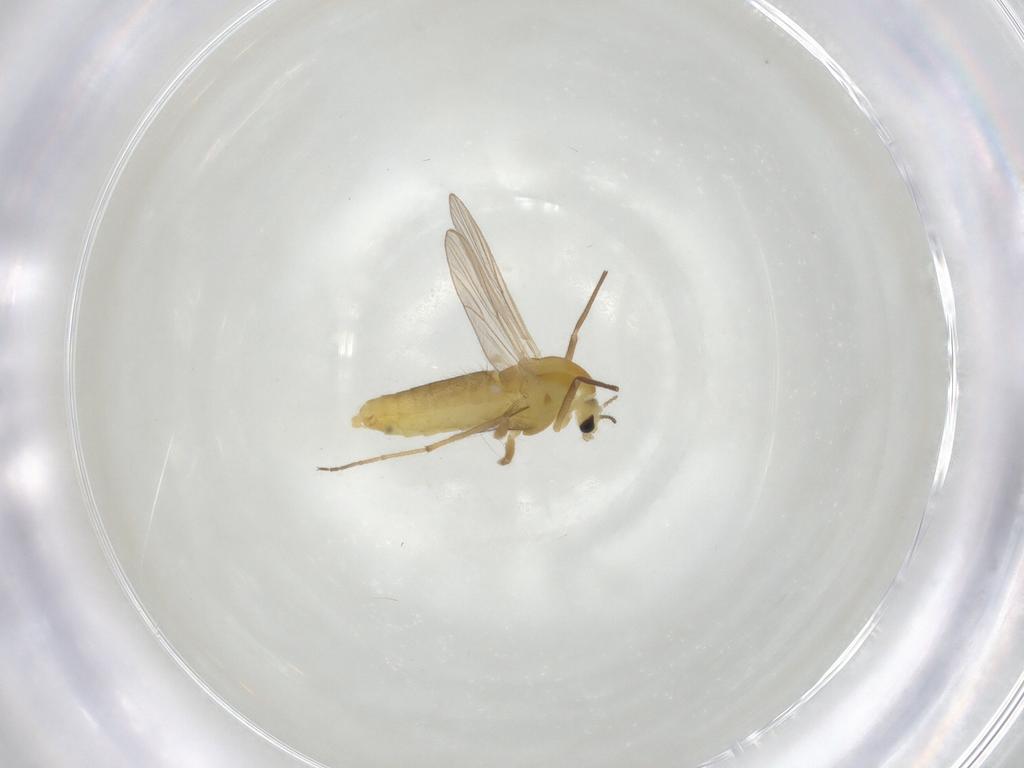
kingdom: Animalia
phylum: Arthropoda
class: Insecta
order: Diptera
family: Chironomidae
